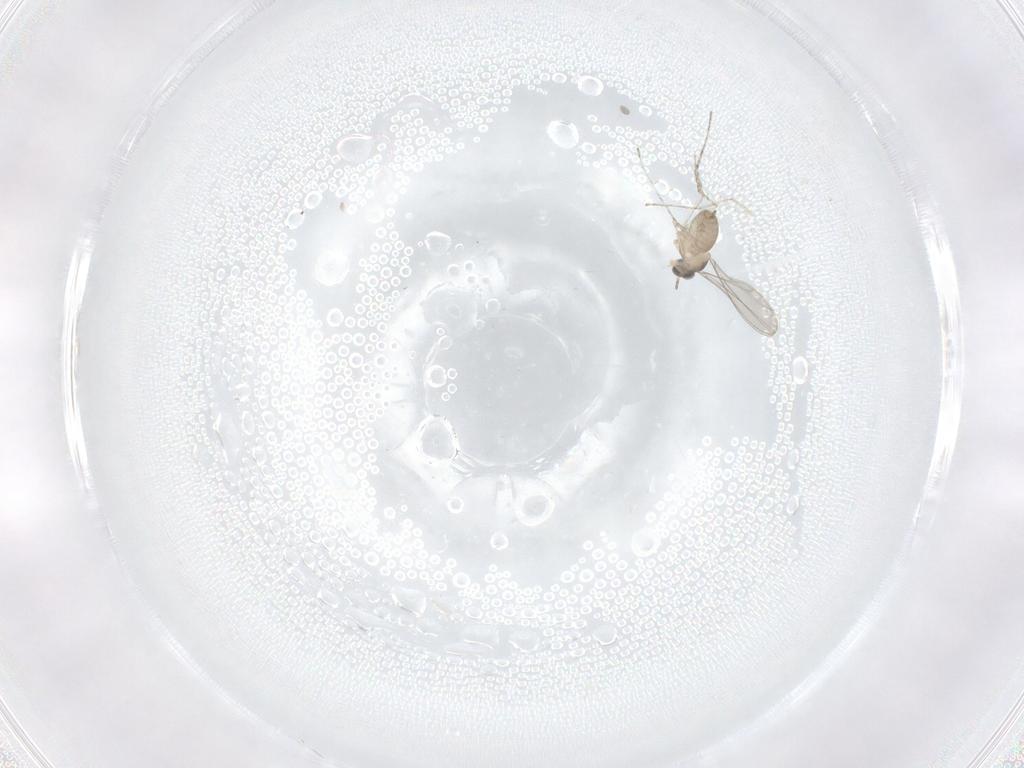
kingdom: Animalia
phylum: Arthropoda
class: Insecta
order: Diptera
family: Cecidomyiidae
